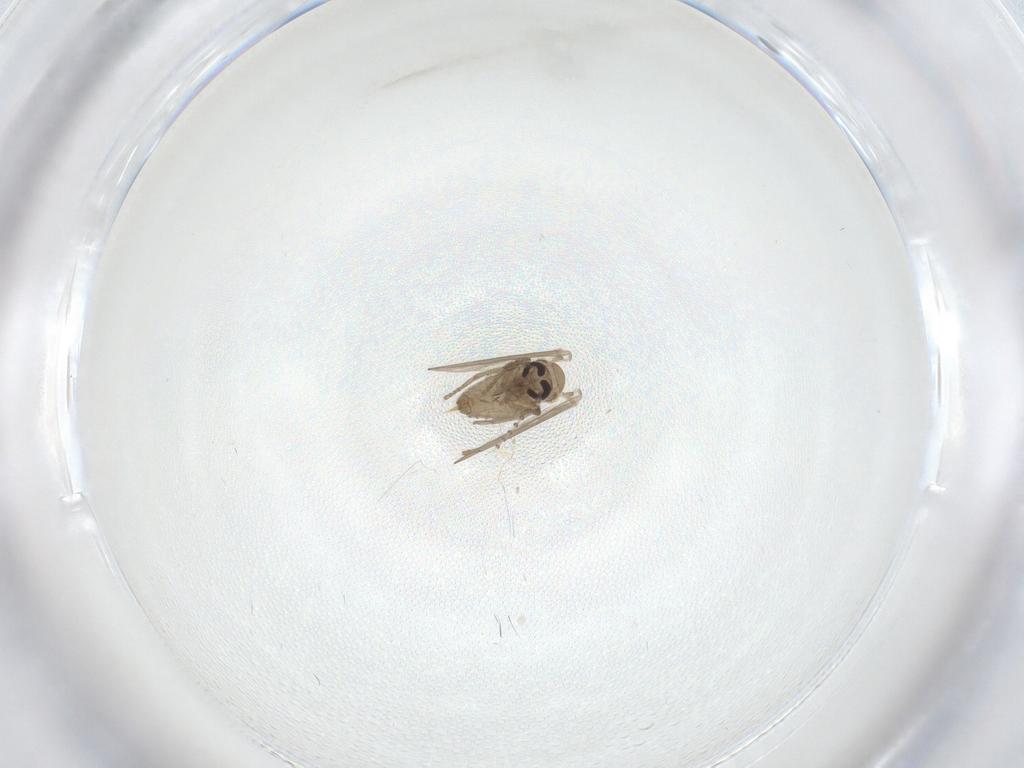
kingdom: Animalia
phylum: Arthropoda
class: Insecta
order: Diptera
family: Psychodidae
